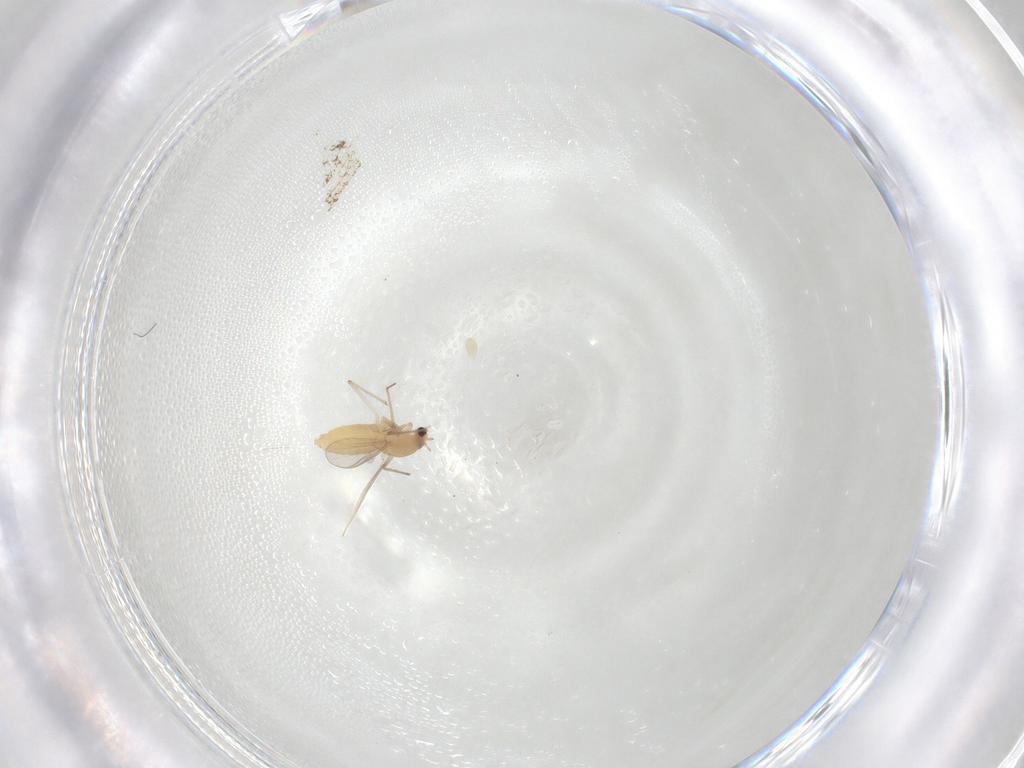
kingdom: Animalia
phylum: Arthropoda
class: Insecta
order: Diptera
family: Chironomidae
